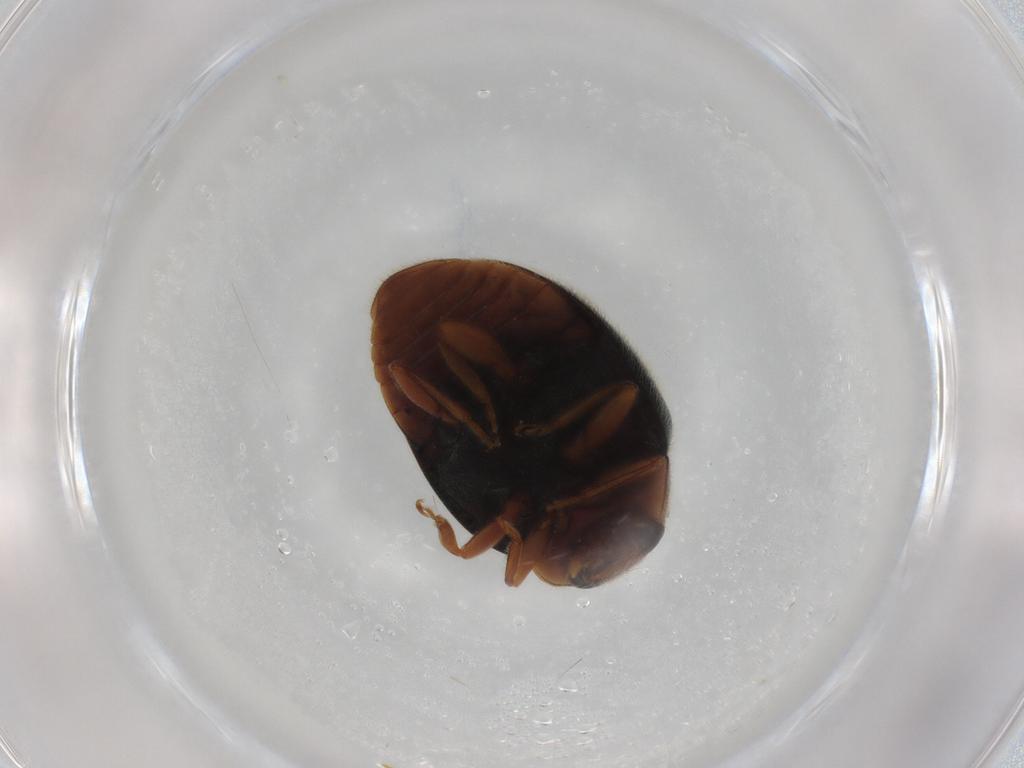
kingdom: Animalia
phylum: Arthropoda
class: Insecta
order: Coleoptera
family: Coccinellidae
